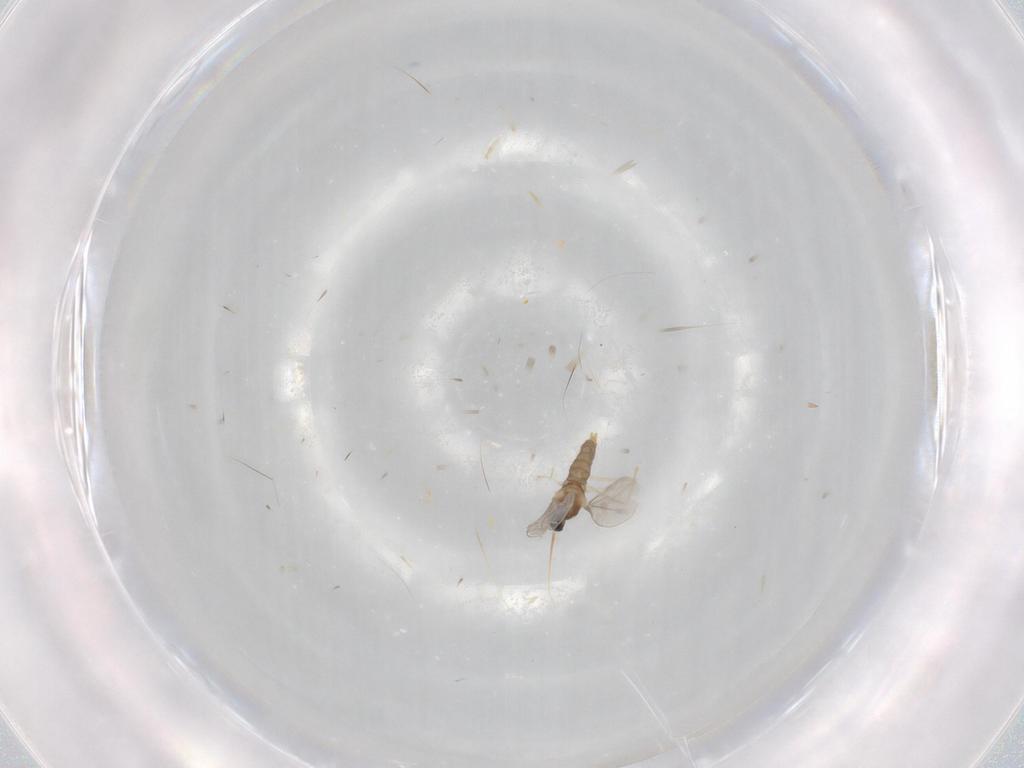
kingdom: Animalia
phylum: Arthropoda
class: Insecta
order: Diptera
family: Cecidomyiidae
